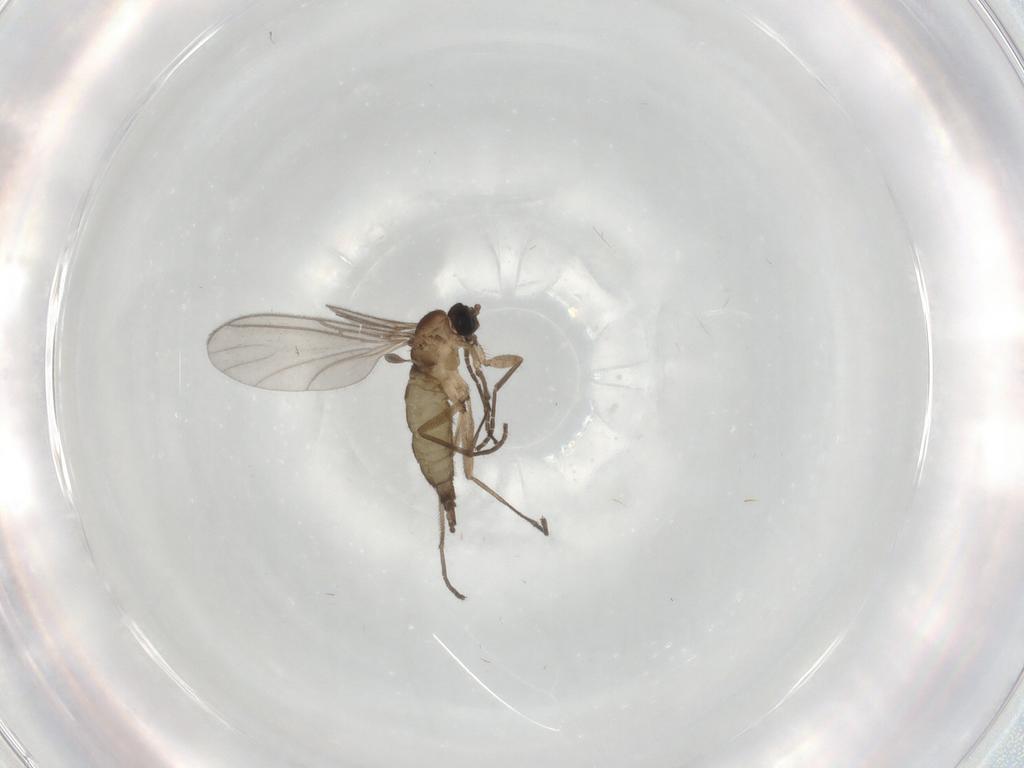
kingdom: Animalia
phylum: Arthropoda
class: Insecta
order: Diptera
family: Sciaridae
